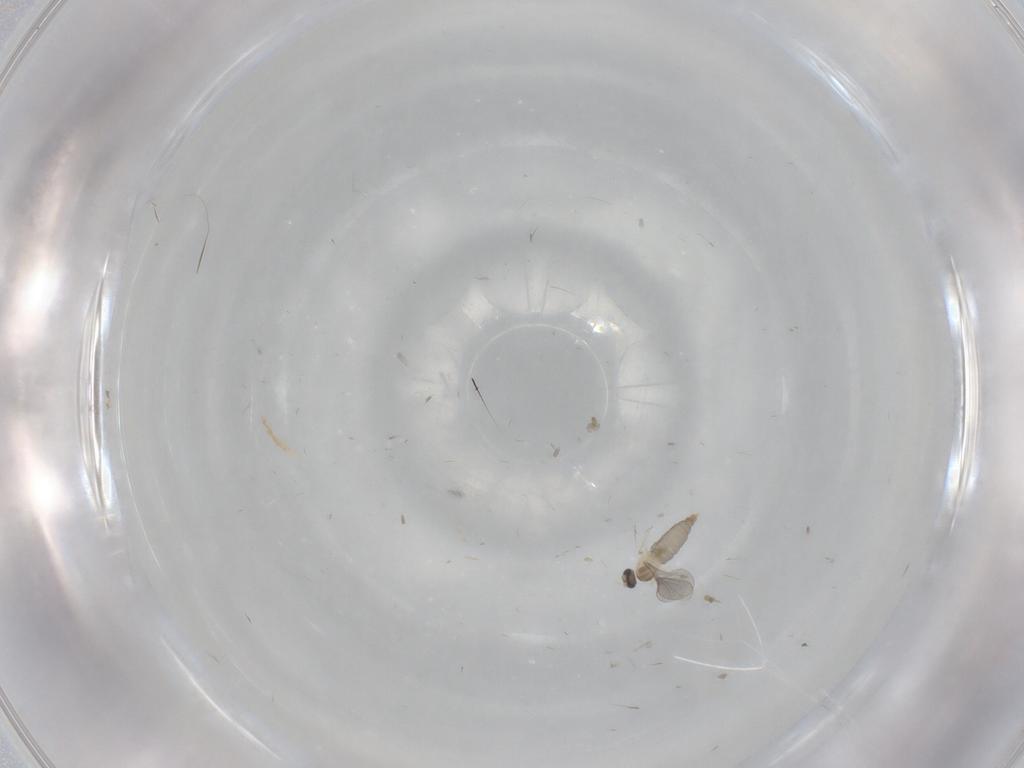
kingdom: Animalia
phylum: Arthropoda
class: Insecta
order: Diptera
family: Cecidomyiidae
